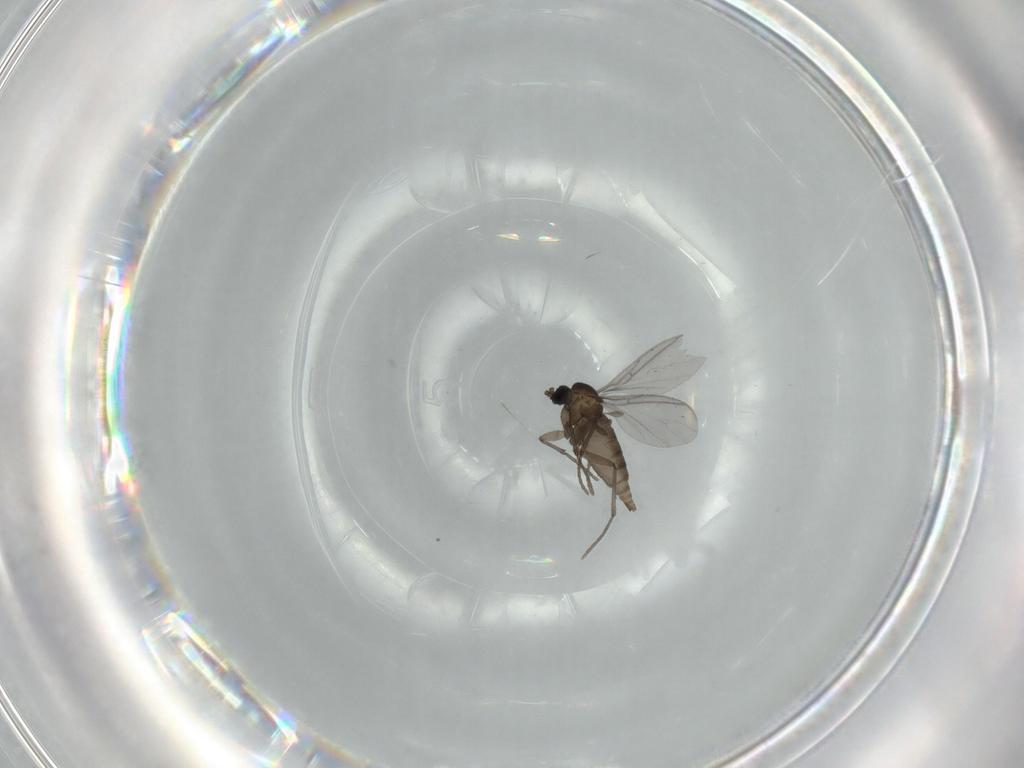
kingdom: Animalia
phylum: Arthropoda
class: Insecta
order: Diptera
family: Sciaridae
